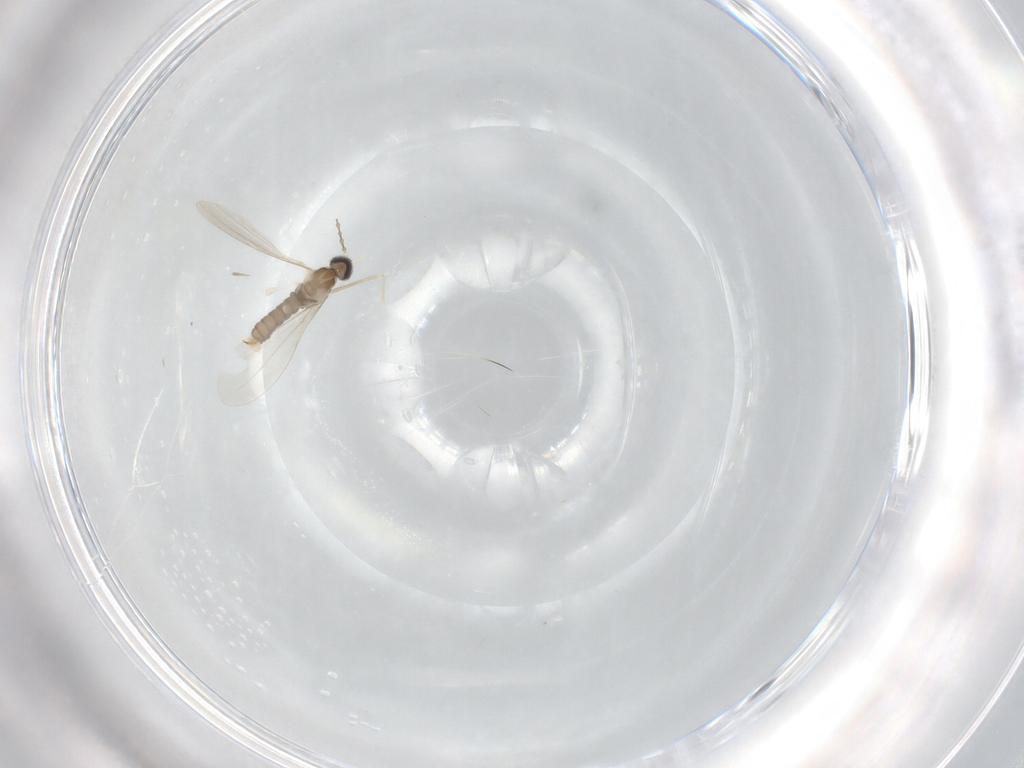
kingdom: Animalia
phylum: Arthropoda
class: Insecta
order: Diptera
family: Cecidomyiidae
